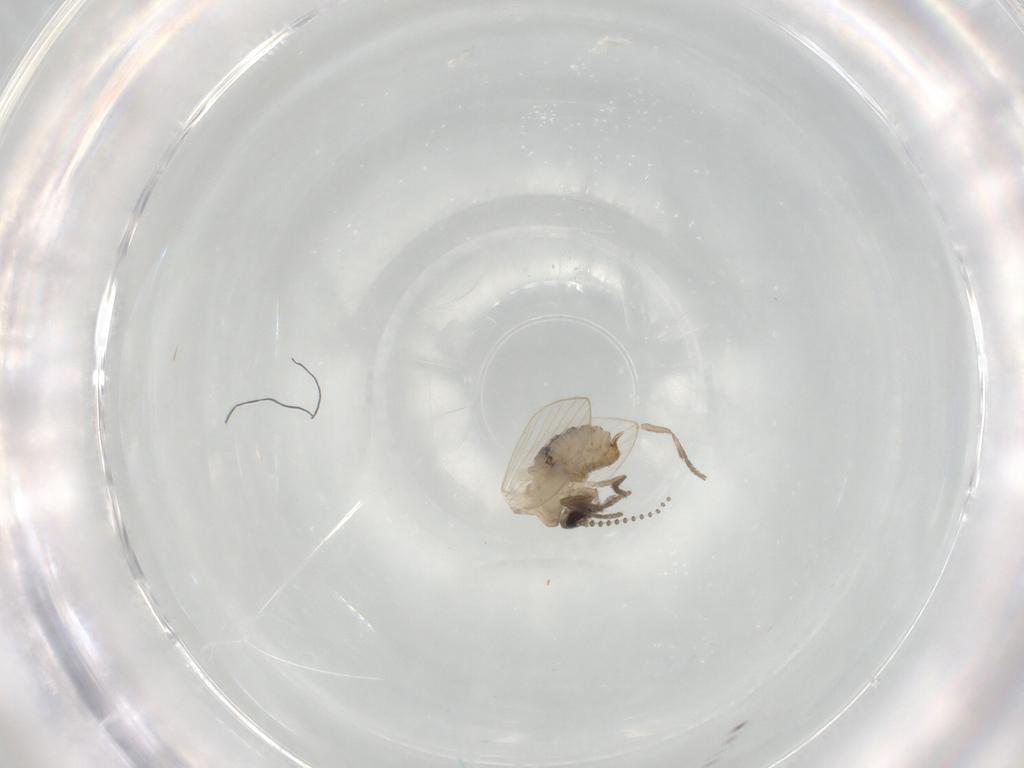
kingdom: Animalia
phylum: Arthropoda
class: Insecta
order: Diptera
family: Psychodidae
